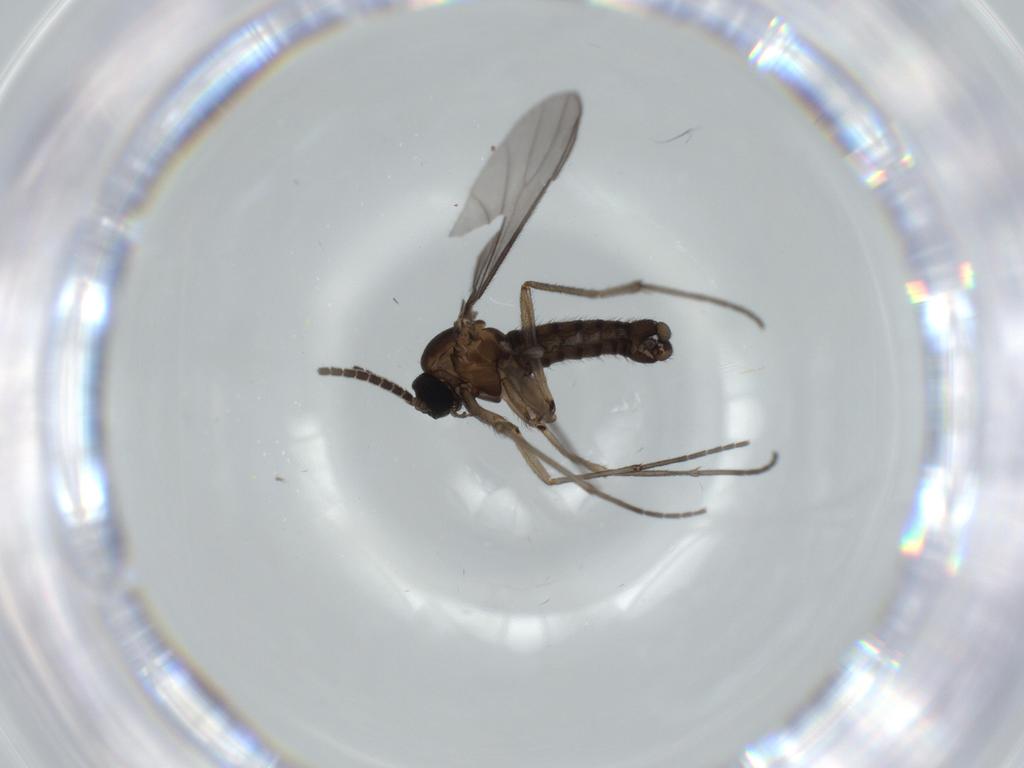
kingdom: Animalia
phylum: Arthropoda
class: Insecta
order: Diptera
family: Sciaridae
